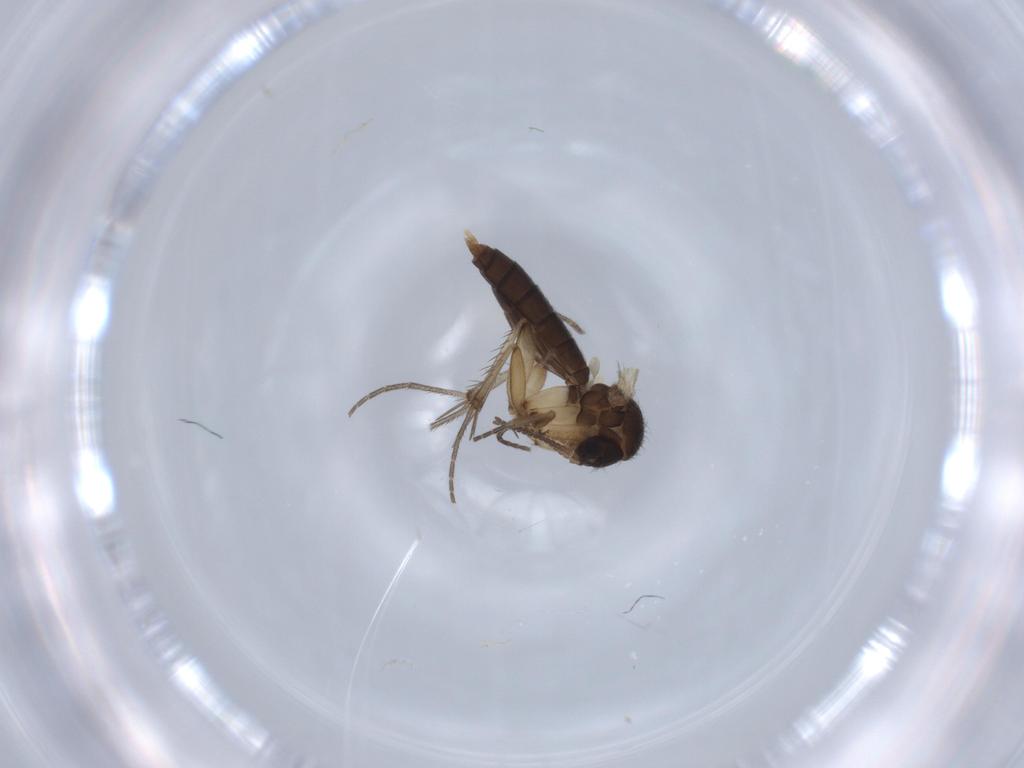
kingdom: Animalia
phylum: Arthropoda
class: Insecta
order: Diptera
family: Mycetophilidae
